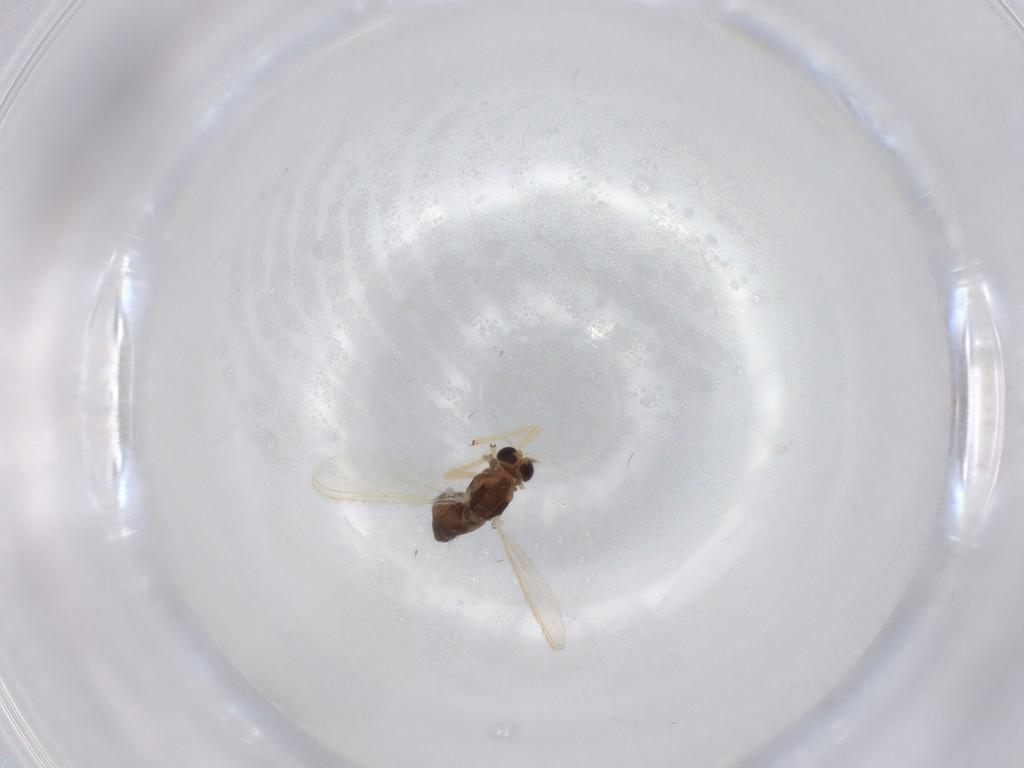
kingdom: Animalia
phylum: Arthropoda
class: Insecta
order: Diptera
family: Chironomidae
